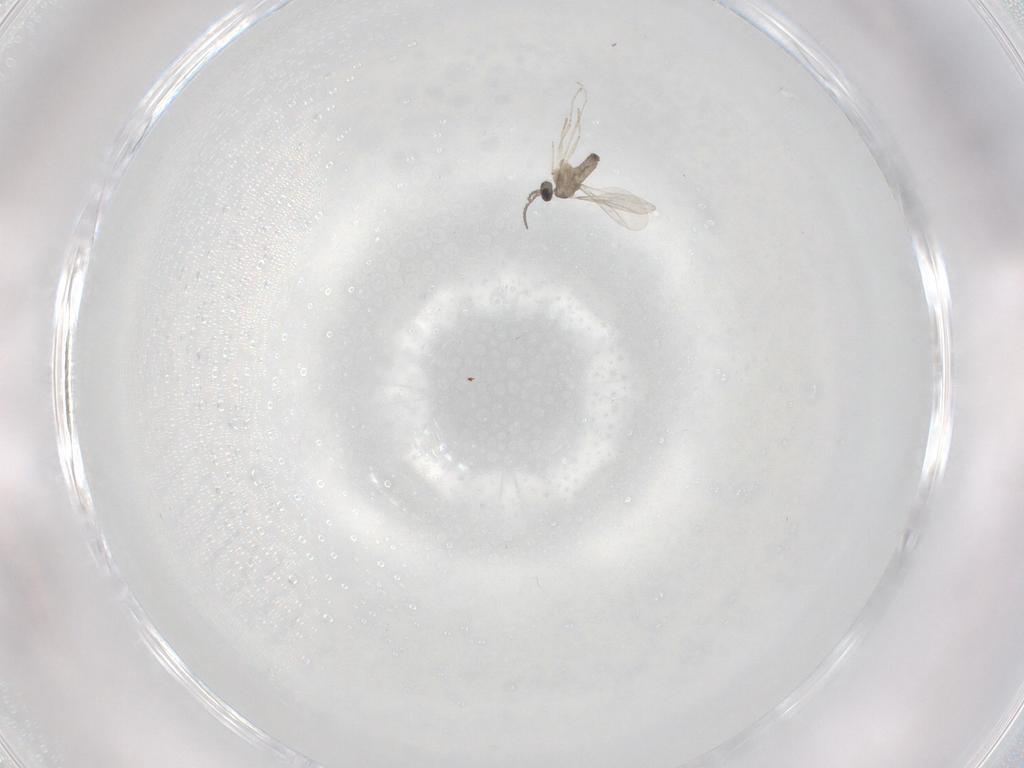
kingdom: Animalia
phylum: Arthropoda
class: Insecta
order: Diptera
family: Cecidomyiidae
